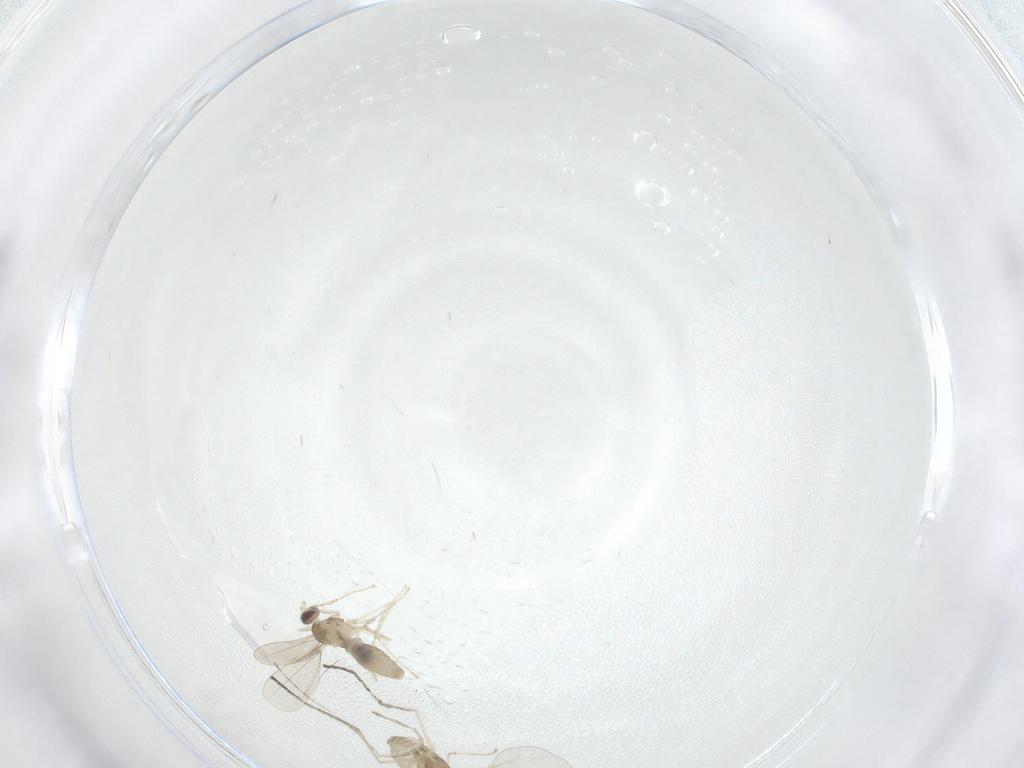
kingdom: Animalia
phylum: Arthropoda
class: Insecta
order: Diptera
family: Cecidomyiidae
